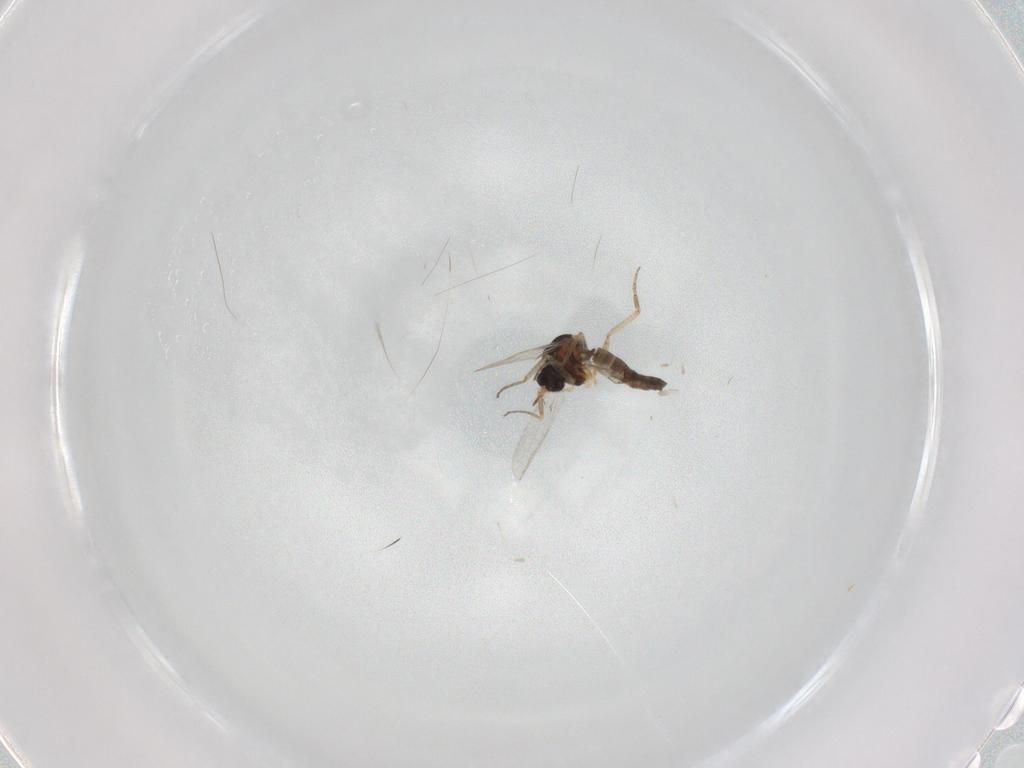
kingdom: Animalia
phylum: Arthropoda
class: Insecta
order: Diptera
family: Ceratopogonidae
